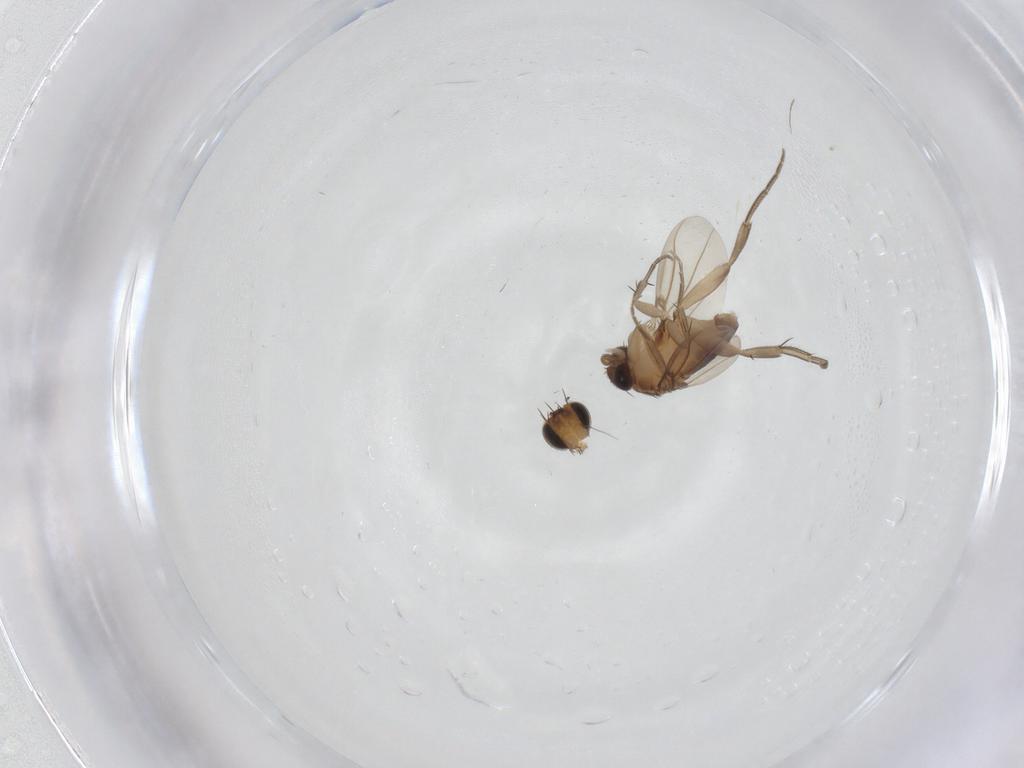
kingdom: Animalia
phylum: Arthropoda
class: Insecta
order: Diptera
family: Phoridae
